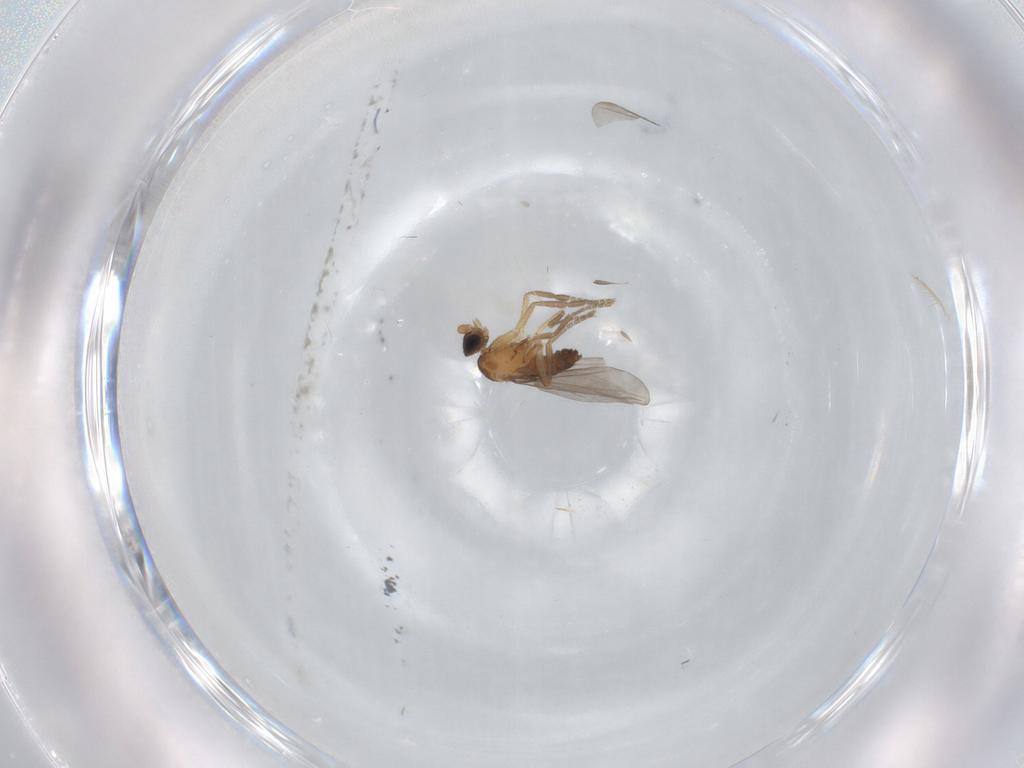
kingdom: Animalia
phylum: Arthropoda
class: Insecta
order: Diptera
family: Phoridae
